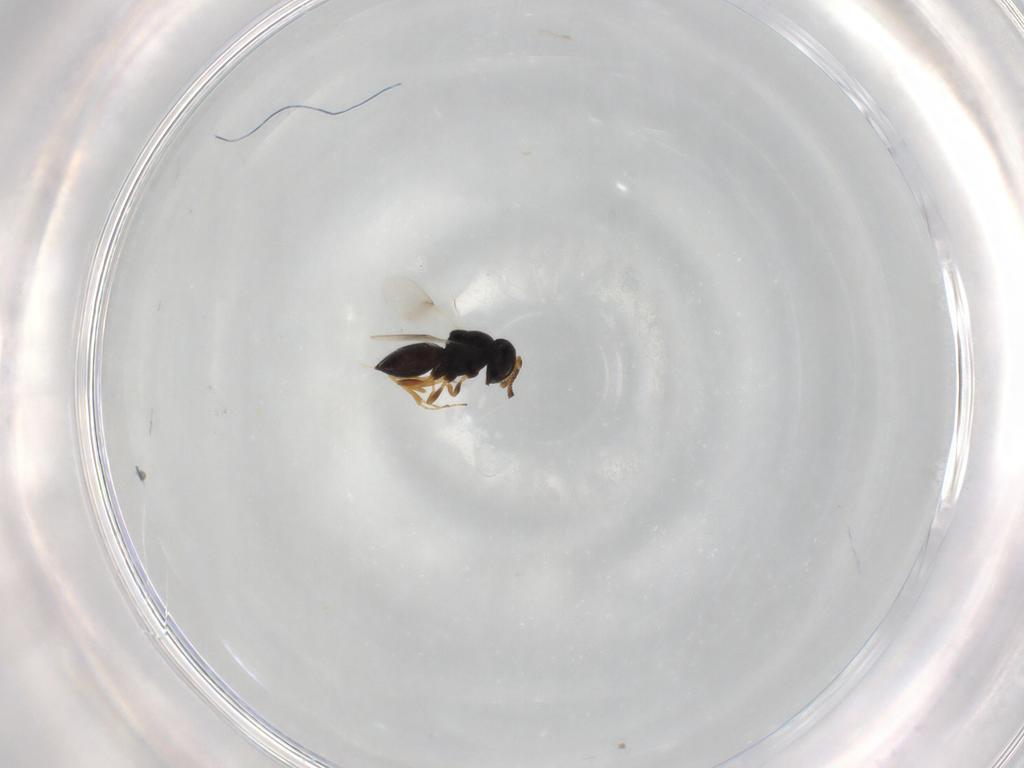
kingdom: Animalia
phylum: Arthropoda
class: Insecta
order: Hymenoptera
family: Scelionidae
